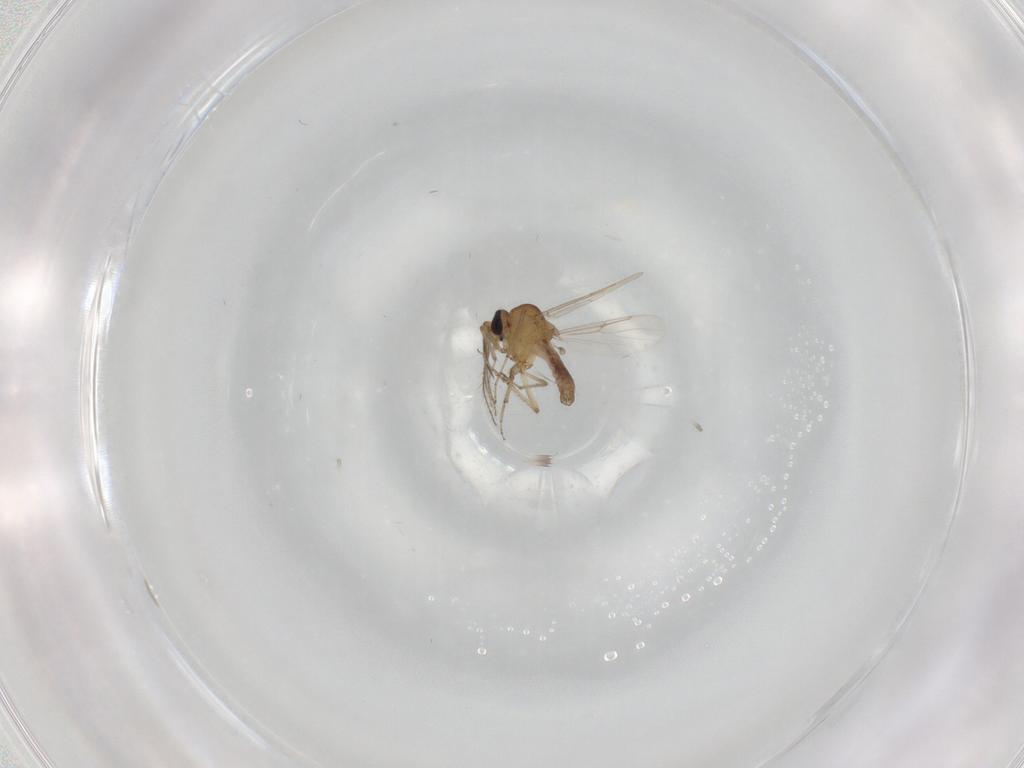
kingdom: Animalia
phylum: Arthropoda
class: Insecta
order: Diptera
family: Ceratopogonidae
